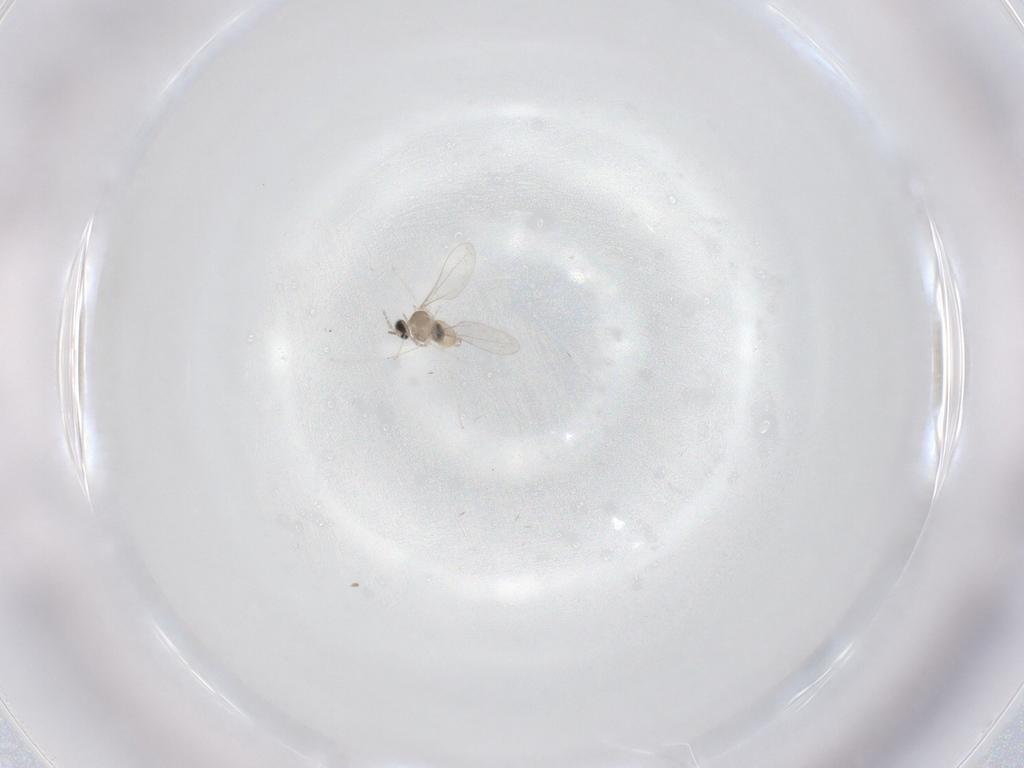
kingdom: Animalia
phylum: Arthropoda
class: Insecta
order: Diptera
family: Cecidomyiidae
